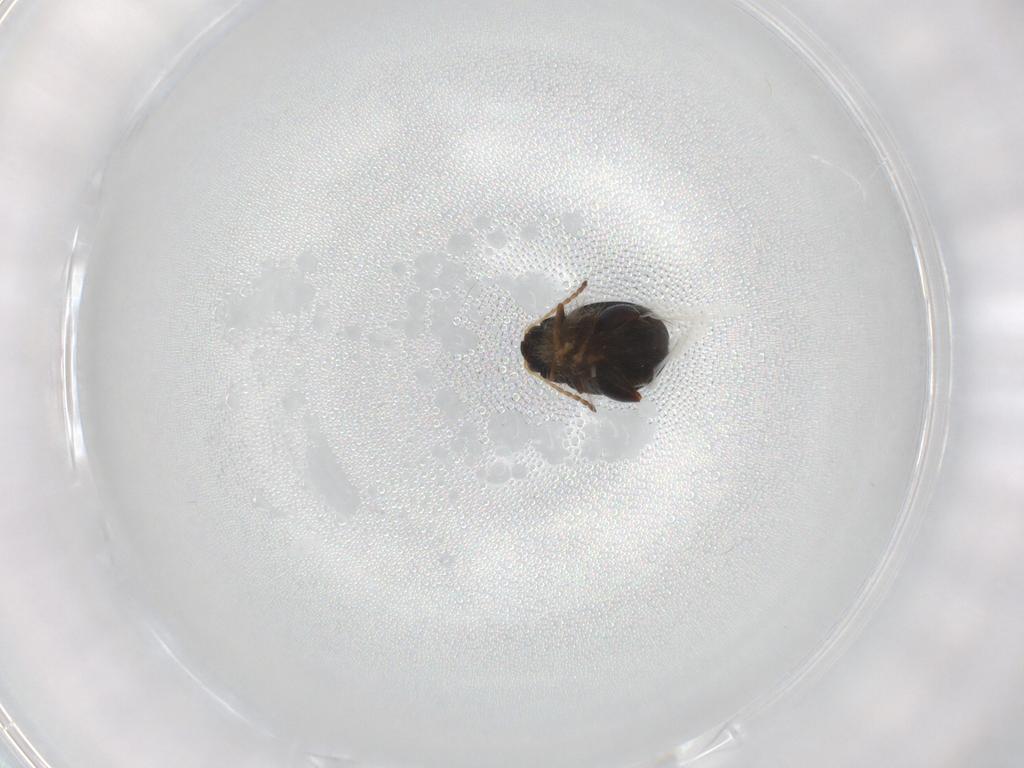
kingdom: Animalia
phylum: Arthropoda
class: Insecta
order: Coleoptera
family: Chrysomelidae
